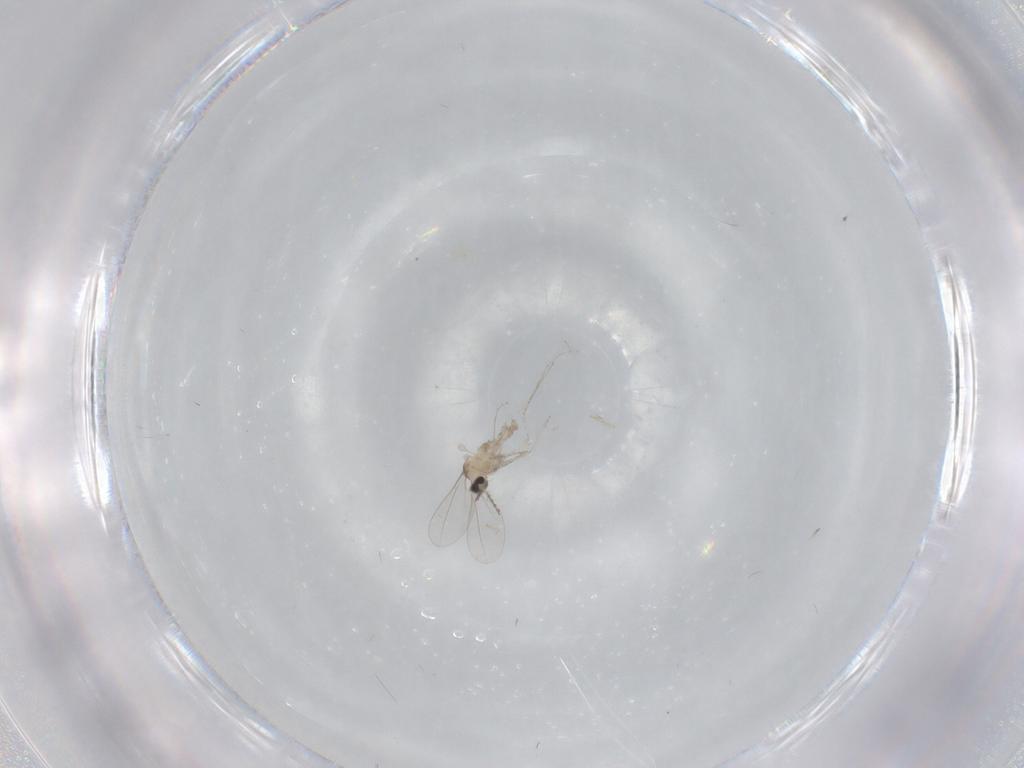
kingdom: Animalia
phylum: Arthropoda
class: Insecta
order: Diptera
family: Cecidomyiidae
